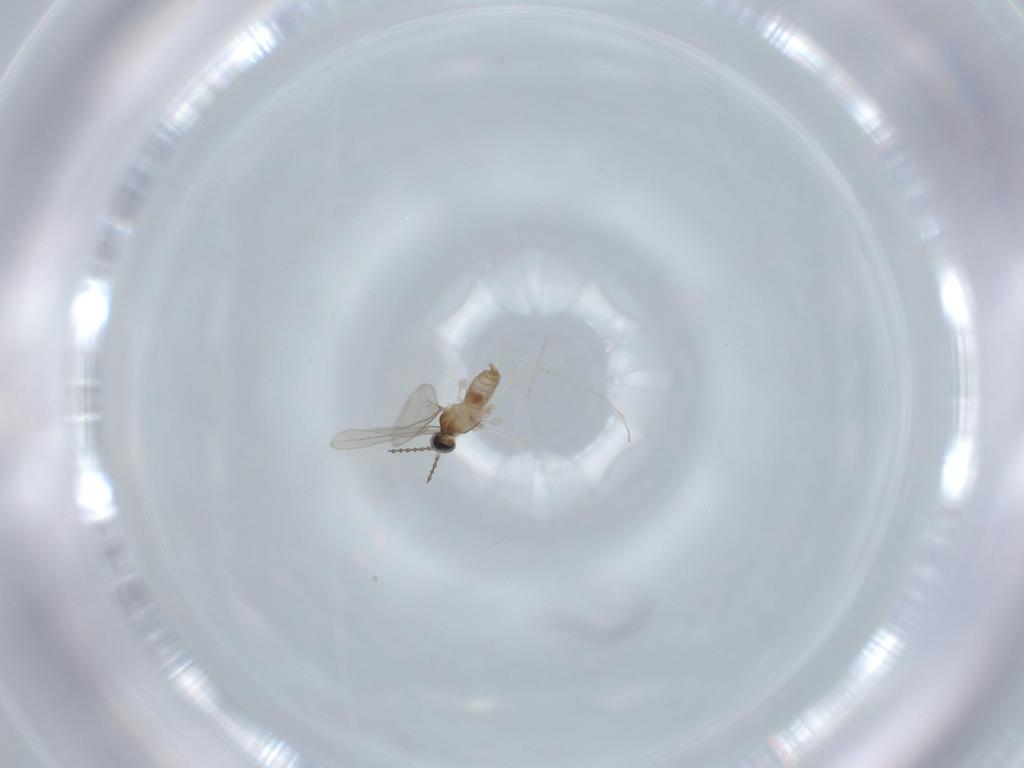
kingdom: Animalia
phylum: Arthropoda
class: Insecta
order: Diptera
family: Cecidomyiidae
